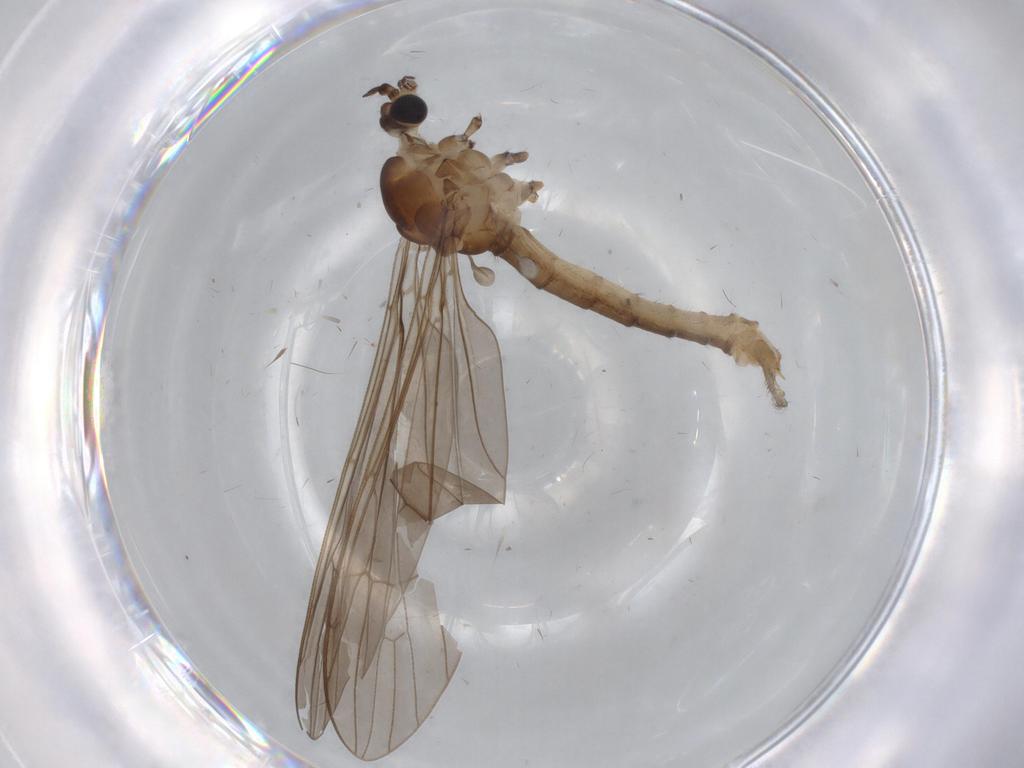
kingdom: Animalia
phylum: Arthropoda
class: Insecta
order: Diptera
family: Limoniidae
